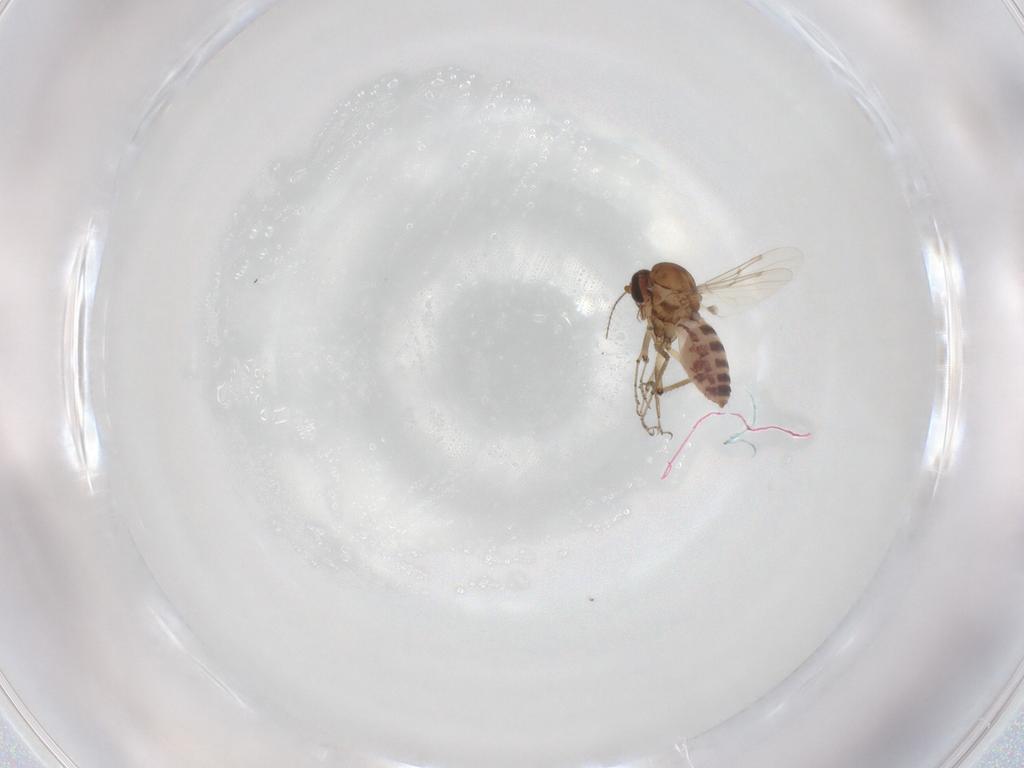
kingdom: Animalia
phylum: Arthropoda
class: Insecta
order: Diptera
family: Ceratopogonidae
